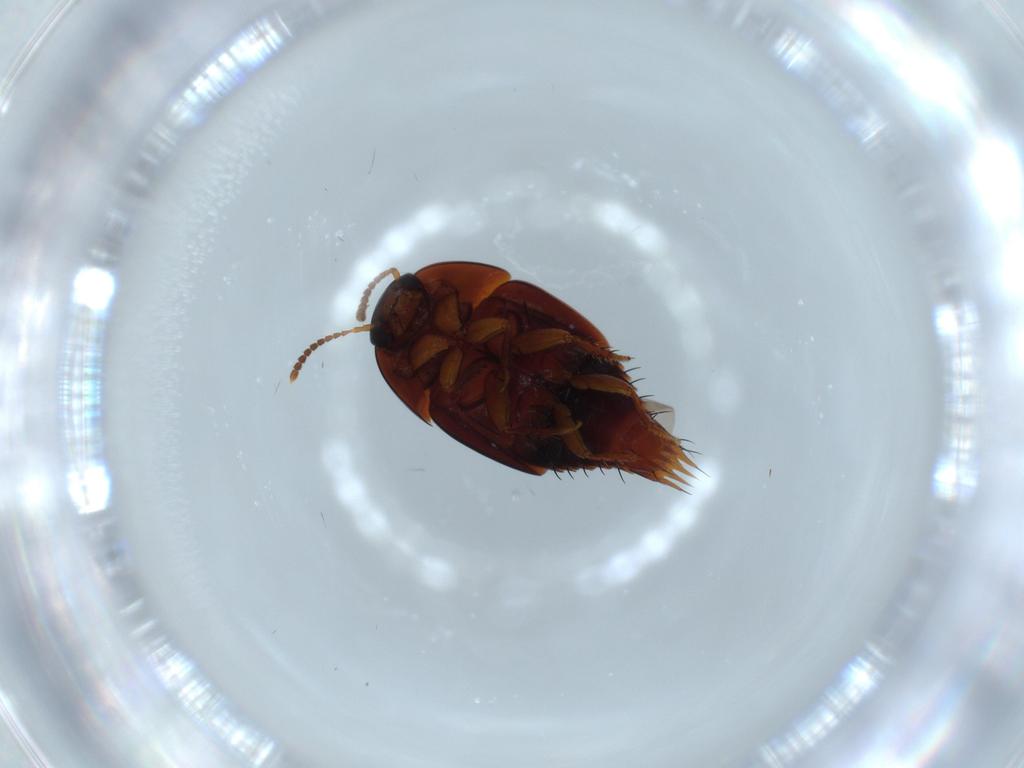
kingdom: Animalia
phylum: Arthropoda
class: Insecta
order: Coleoptera
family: Staphylinidae
